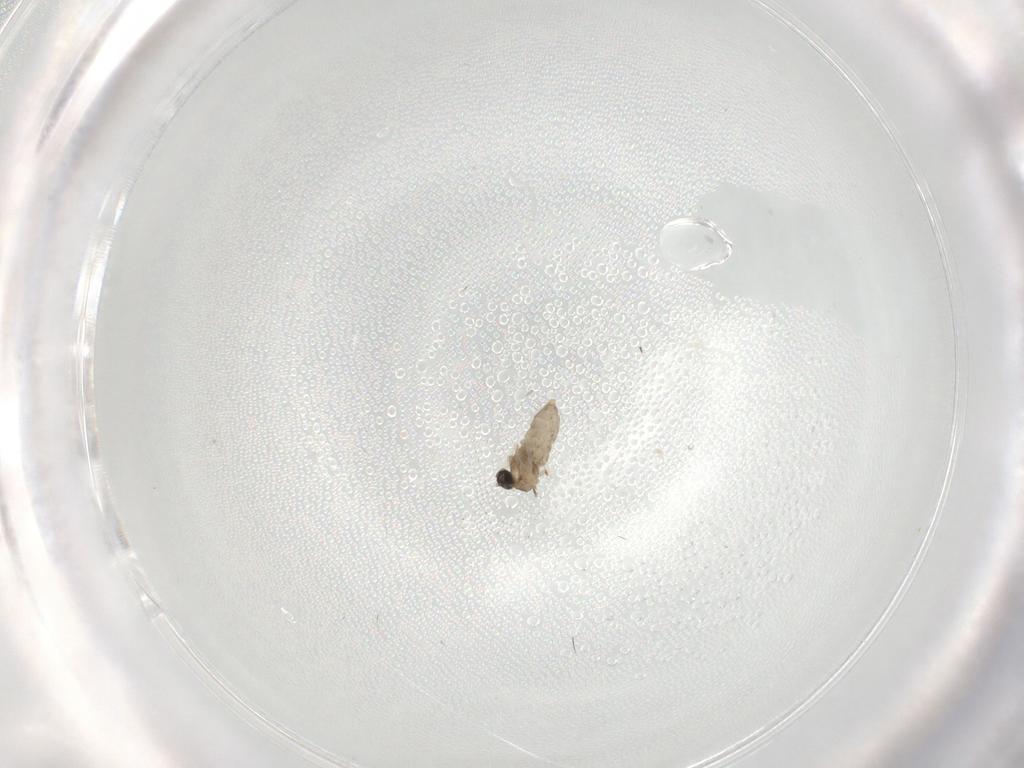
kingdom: Animalia
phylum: Arthropoda
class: Insecta
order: Diptera
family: Cecidomyiidae
